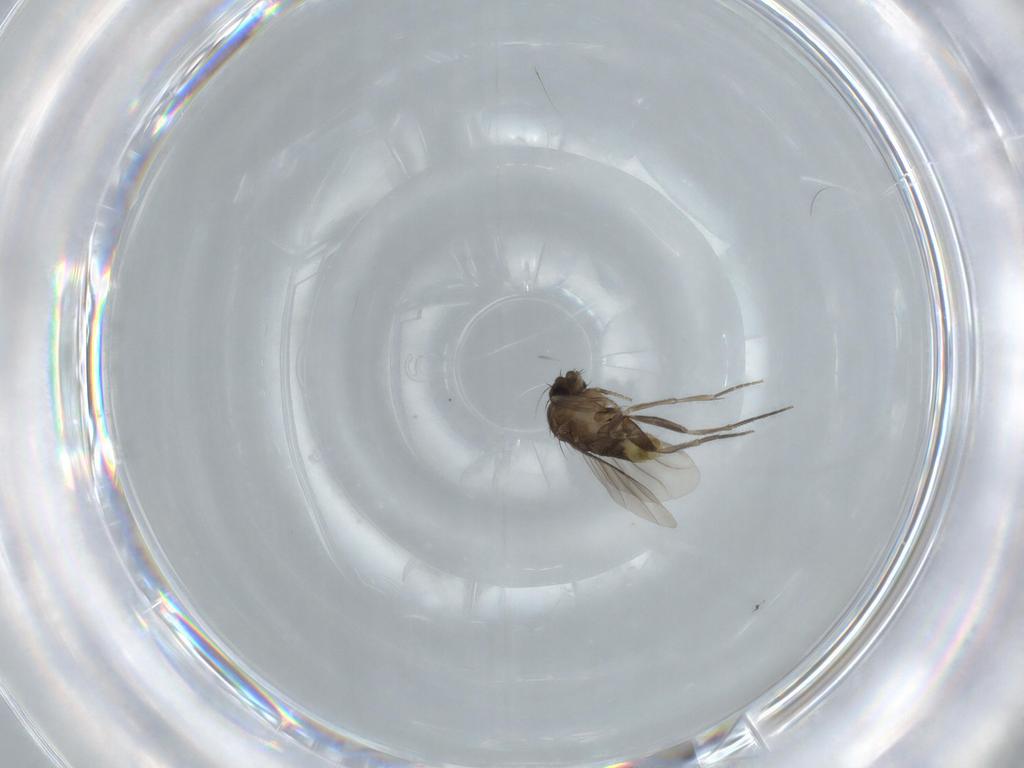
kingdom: Animalia
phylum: Arthropoda
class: Insecta
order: Diptera
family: Phoridae
